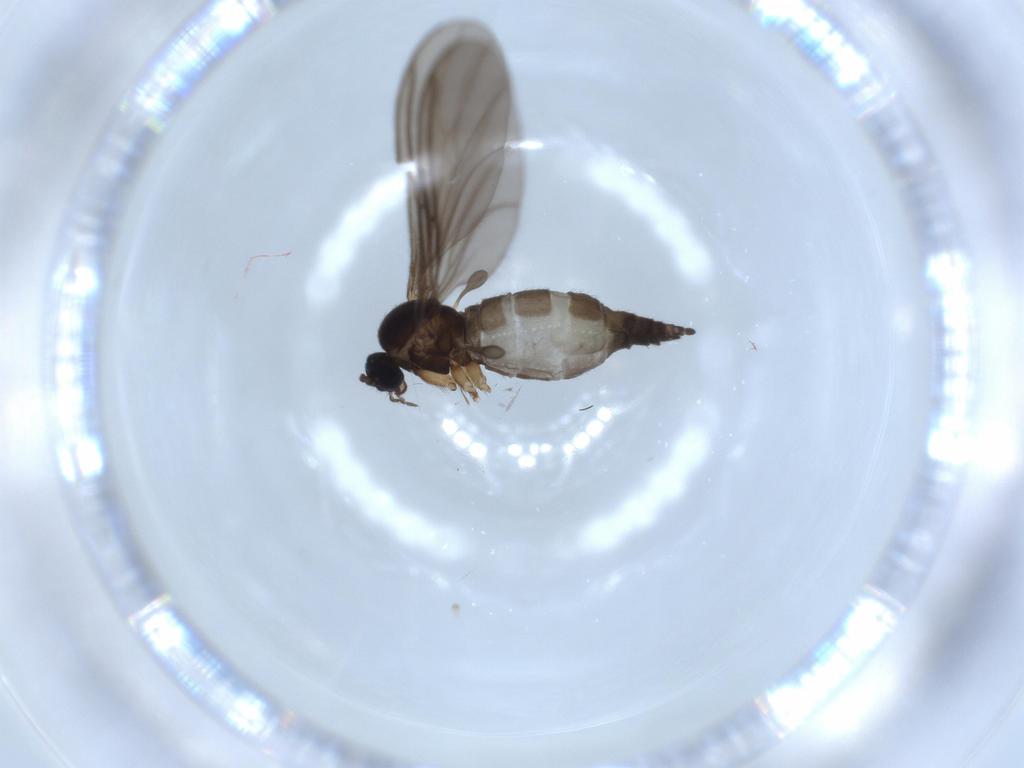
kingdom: Animalia
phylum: Arthropoda
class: Insecta
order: Diptera
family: Sciaridae
